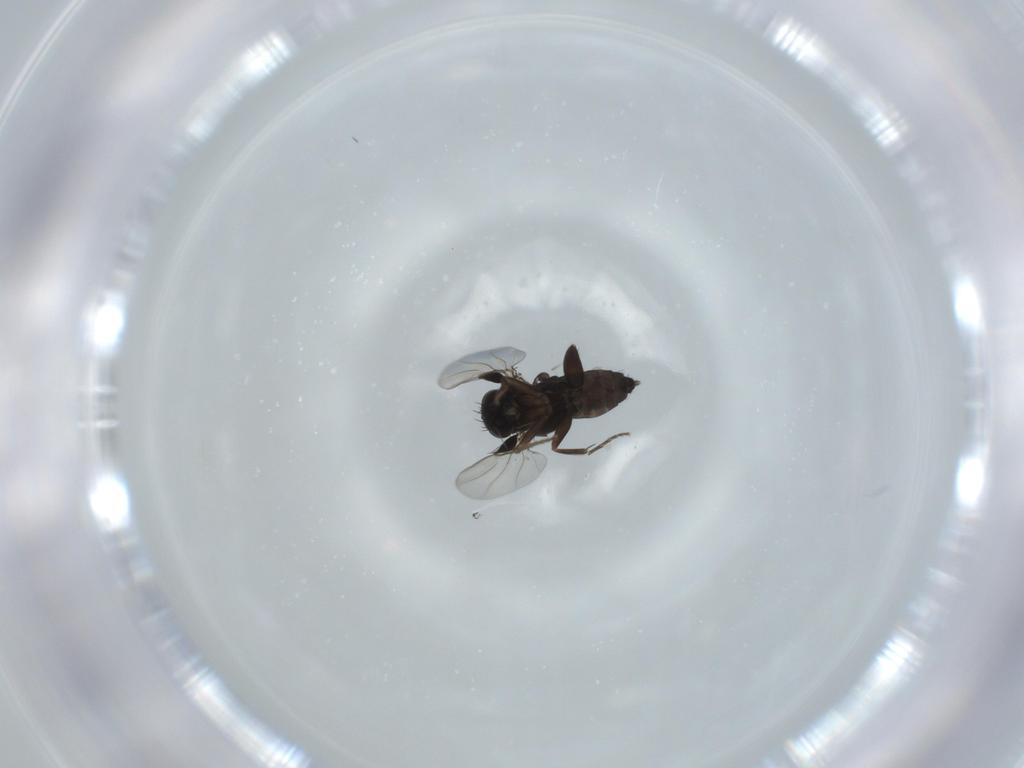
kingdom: Animalia
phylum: Arthropoda
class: Insecta
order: Diptera
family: Phoridae
